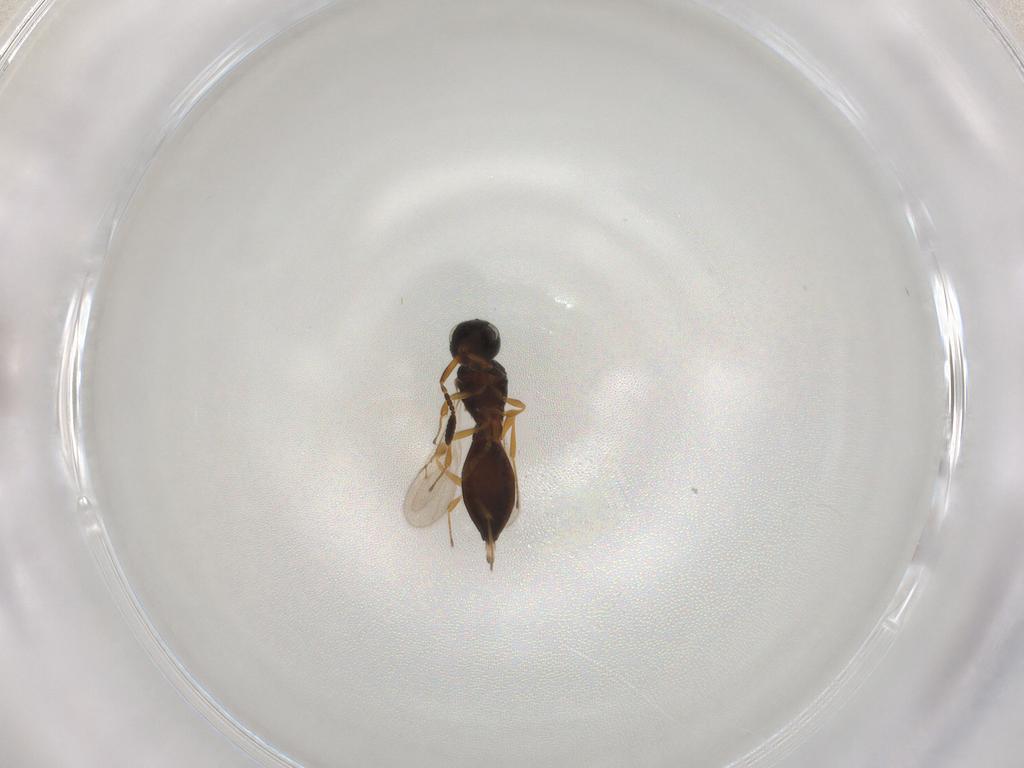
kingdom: Animalia
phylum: Arthropoda
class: Insecta
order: Hymenoptera
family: Scelionidae
